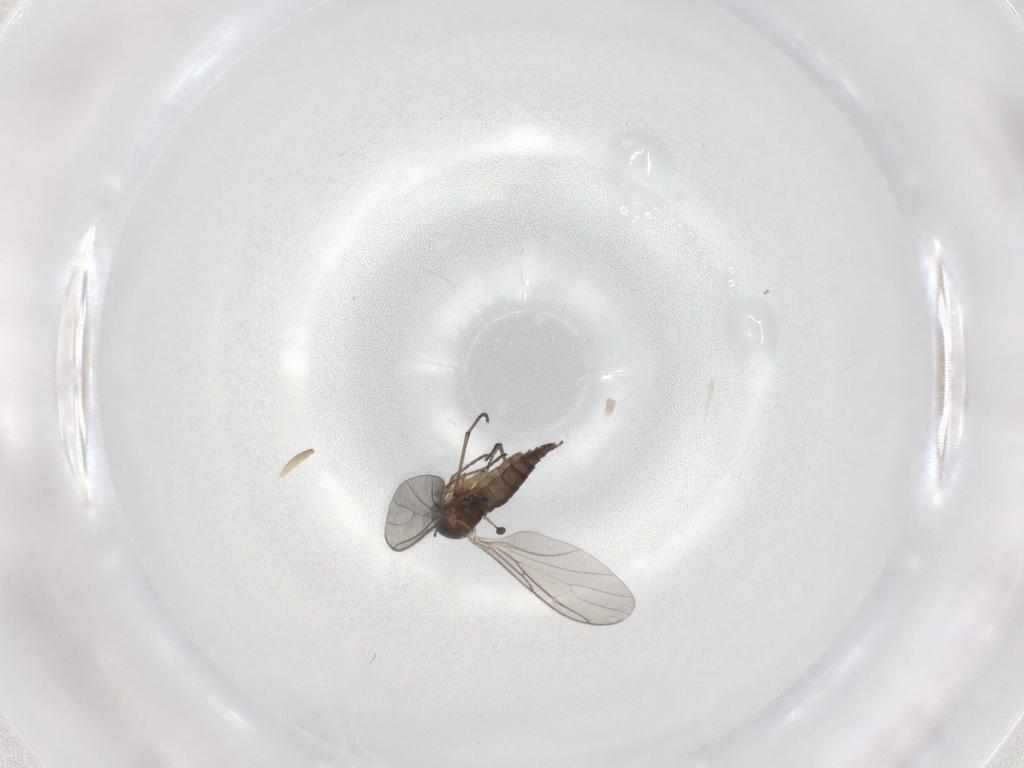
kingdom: Animalia
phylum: Arthropoda
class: Insecta
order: Diptera
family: Sciaridae
